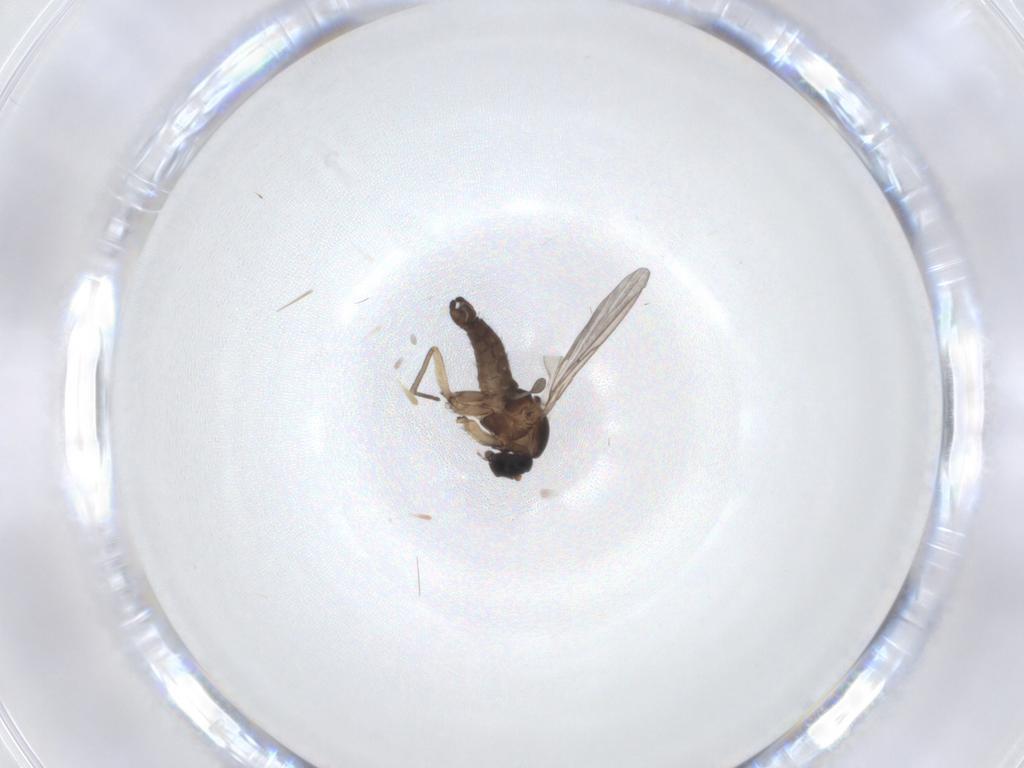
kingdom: Animalia
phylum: Arthropoda
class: Insecta
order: Diptera
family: Sciaridae
